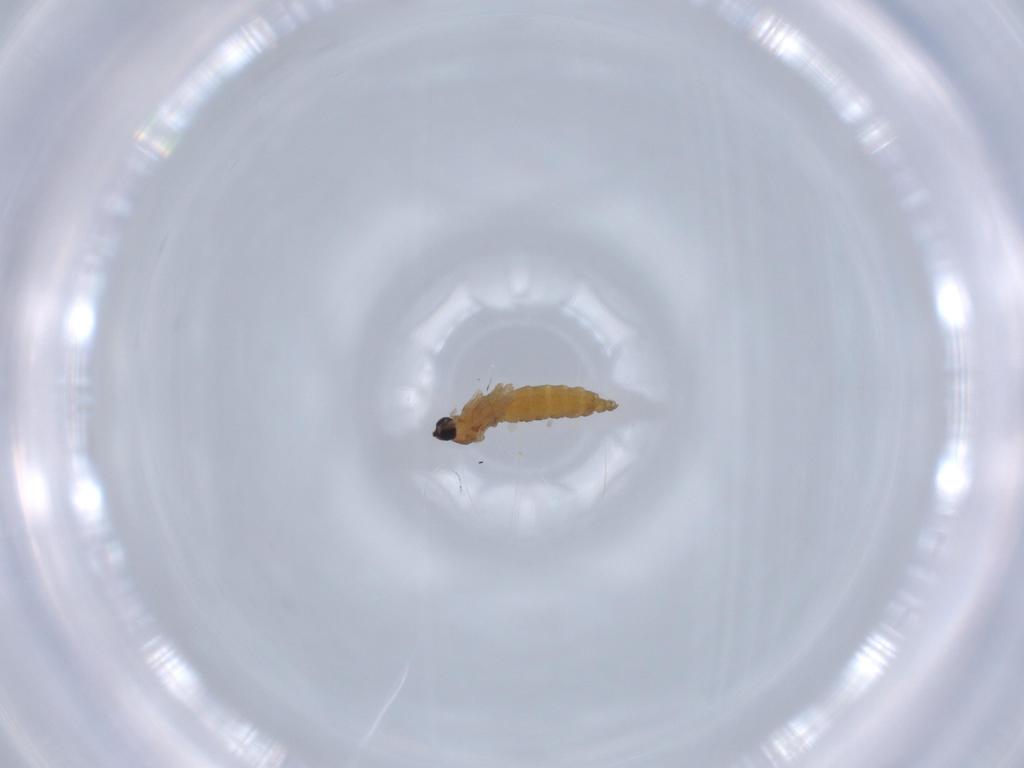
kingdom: Animalia
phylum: Arthropoda
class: Insecta
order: Diptera
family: Cecidomyiidae
